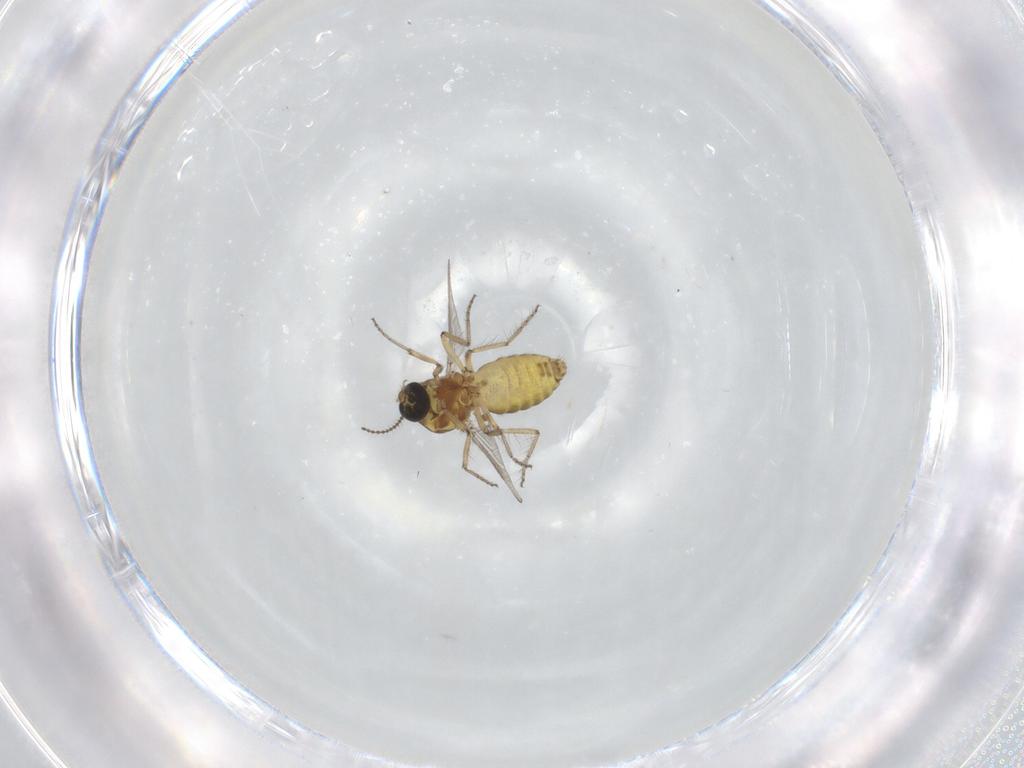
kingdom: Animalia
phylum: Arthropoda
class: Insecta
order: Diptera
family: Ceratopogonidae
